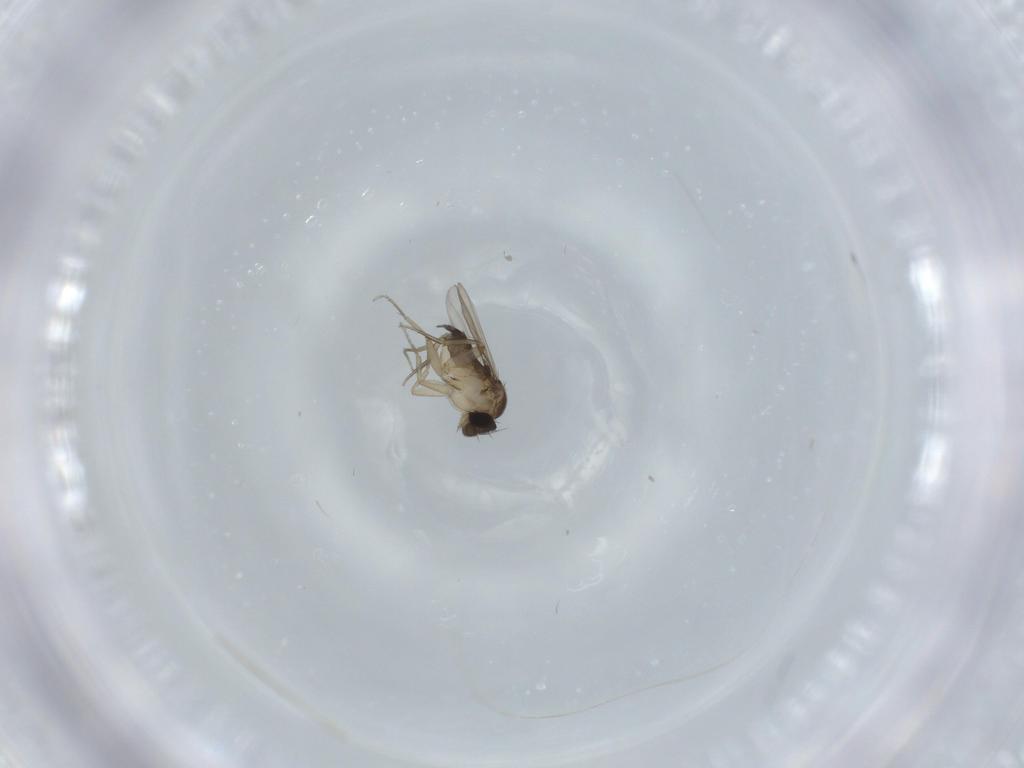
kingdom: Animalia
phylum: Arthropoda
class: Insecta
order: Diptera
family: Phoridae
